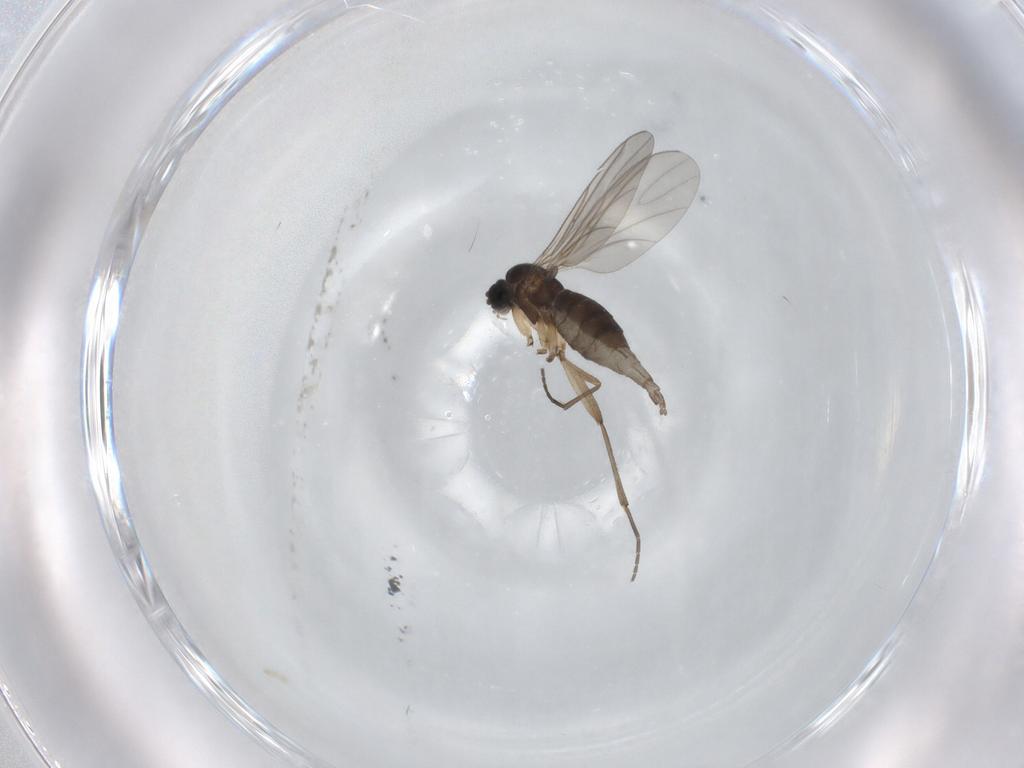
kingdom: Animalia
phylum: Arthropoda
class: Insecta
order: Diptera
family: Sciaridae
